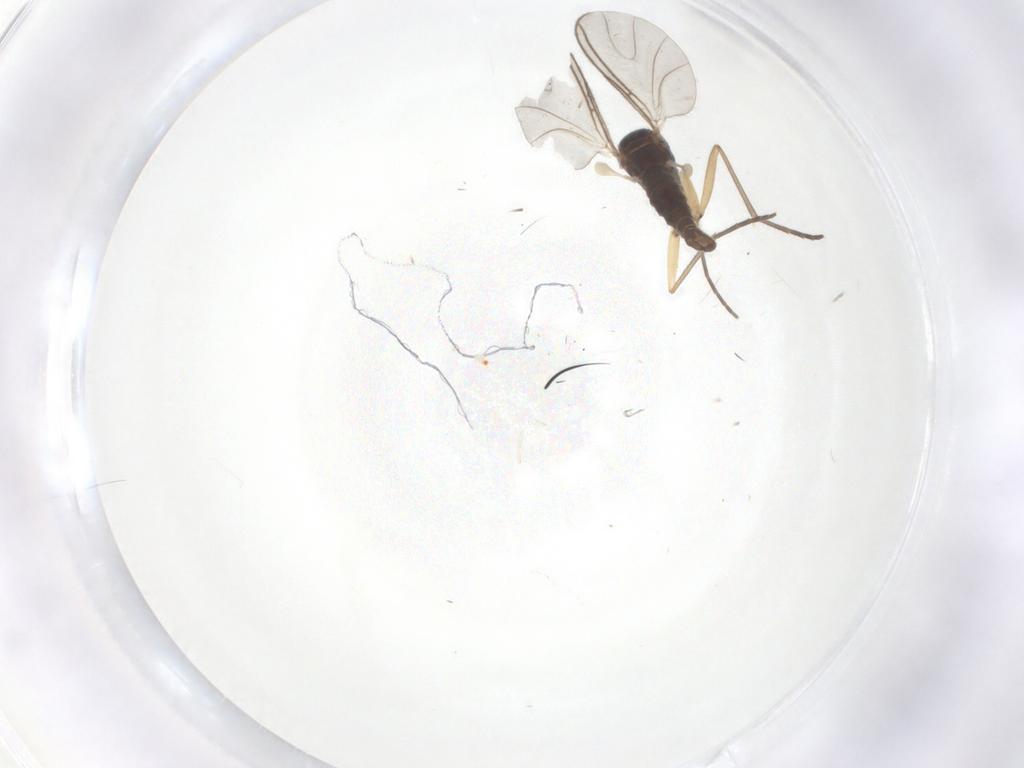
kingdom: Animalia
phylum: Arthropoda
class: Insecta
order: Diptera
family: Sciaridae
